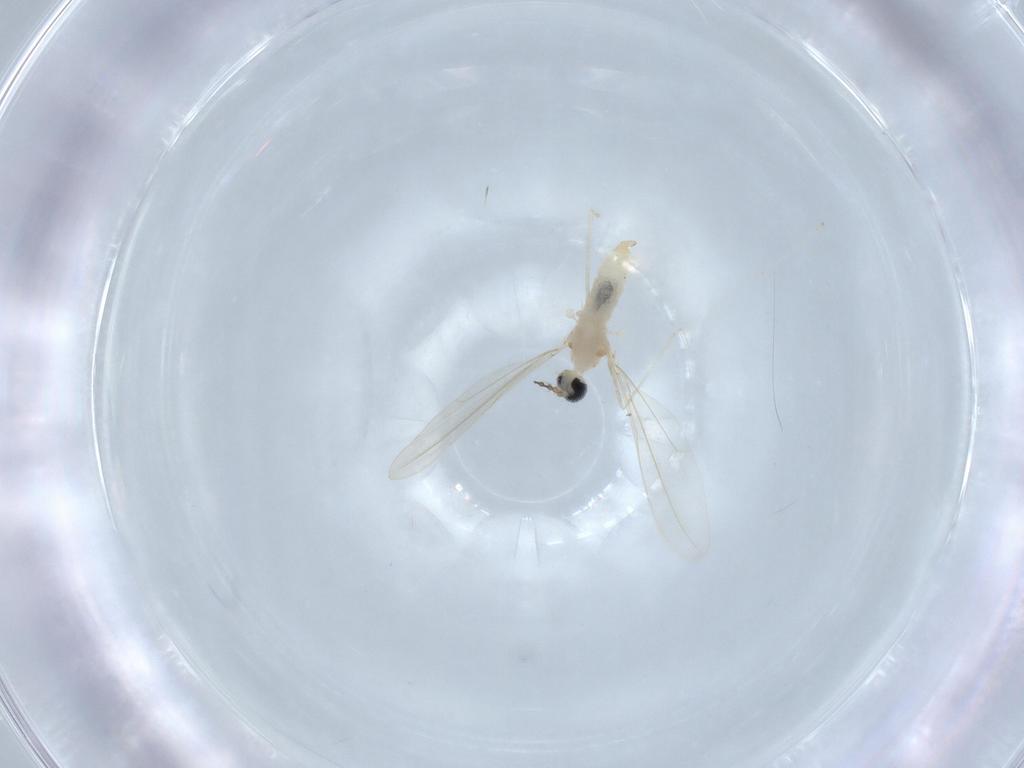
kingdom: Animalia
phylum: Arthropoda
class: Insecta
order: Diptera
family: Cecidomyiidae
